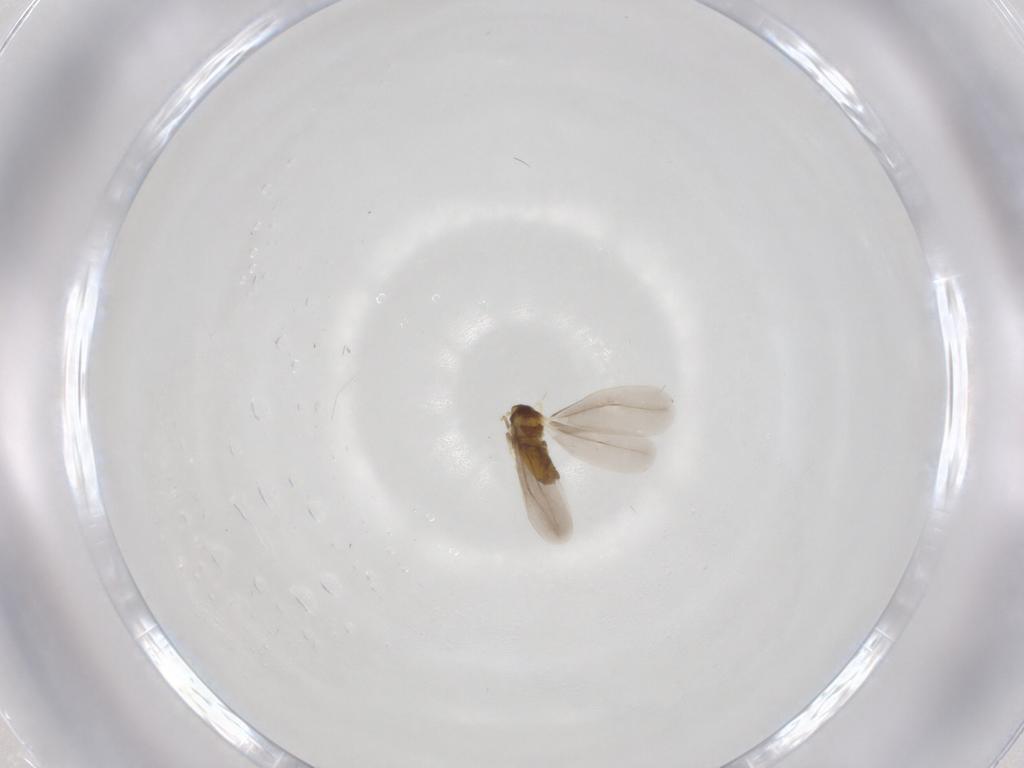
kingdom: Animalia
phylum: Arthropoda
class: Insecta
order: Hemiptera
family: Aleyrodidae
